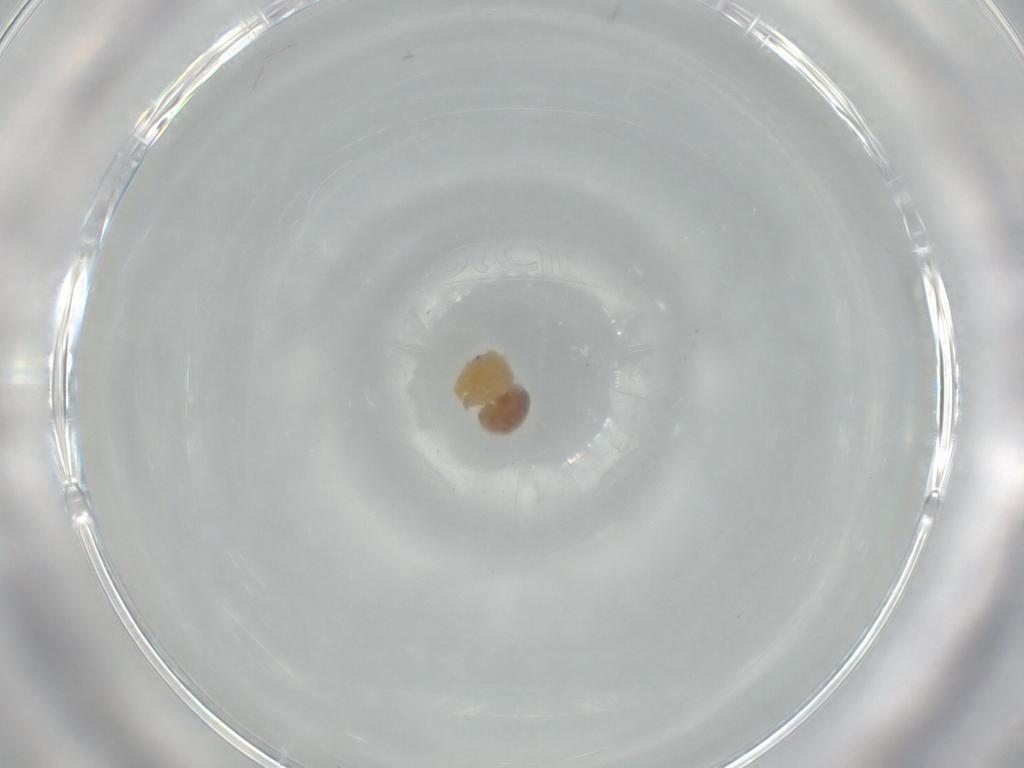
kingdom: Animalia
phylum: Arthropoda
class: Arachnida
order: Araneae
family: Pholcidae
